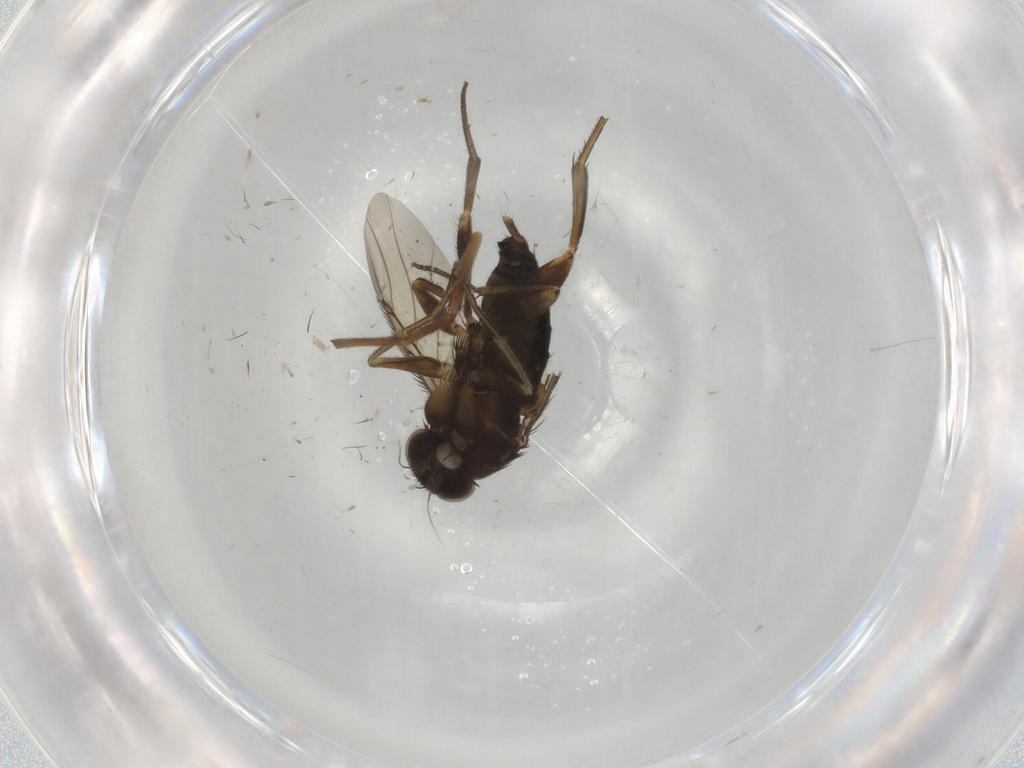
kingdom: Animalia
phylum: Arthropoda
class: Insecta
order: Diptera
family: Phoridae
